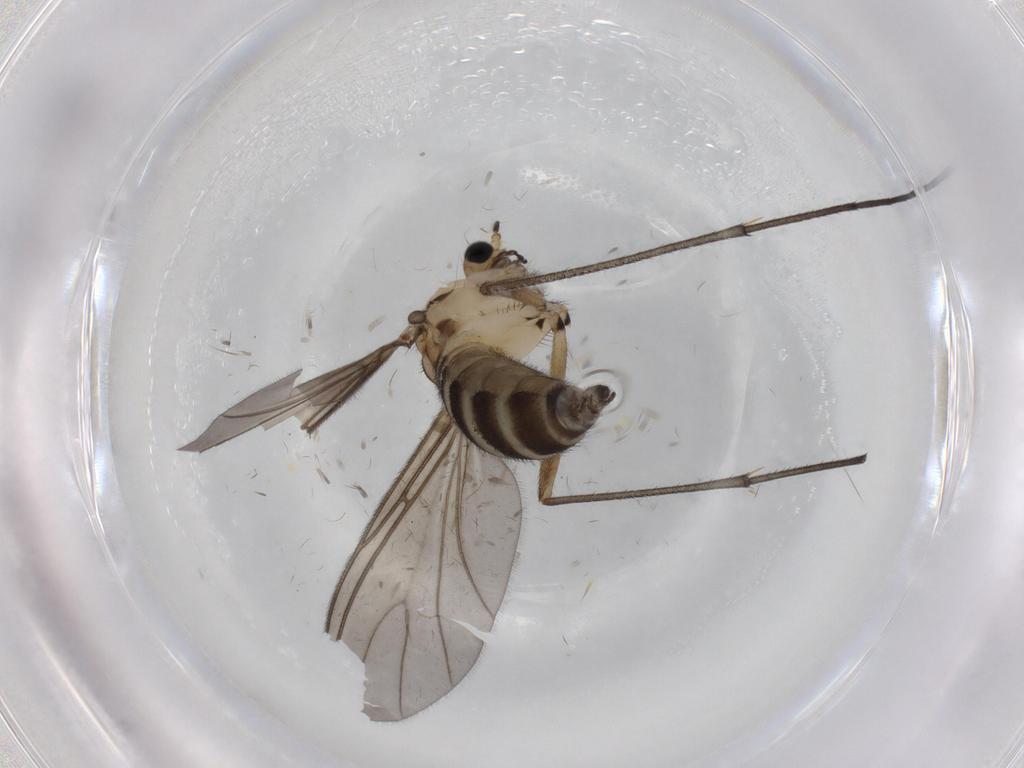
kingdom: Animalia
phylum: Arthropoda
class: Insecta
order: Diptera
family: Sciaridae
